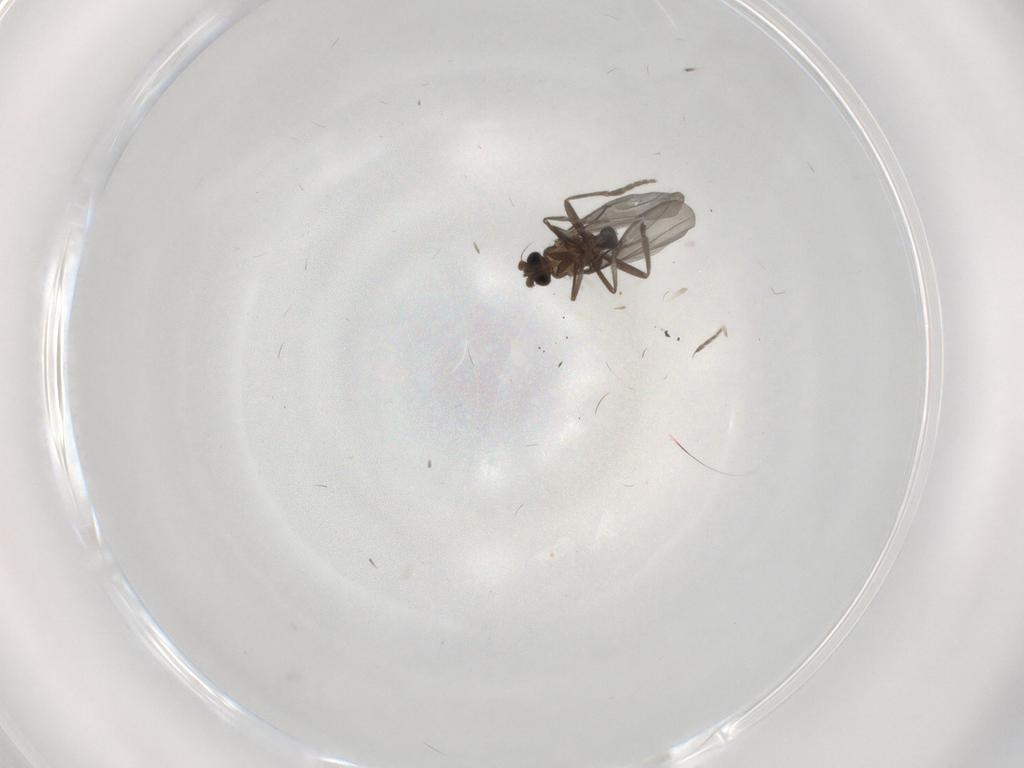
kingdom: Animalia
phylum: Arthropoda
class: Insecta
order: Diptera
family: Phoridae
